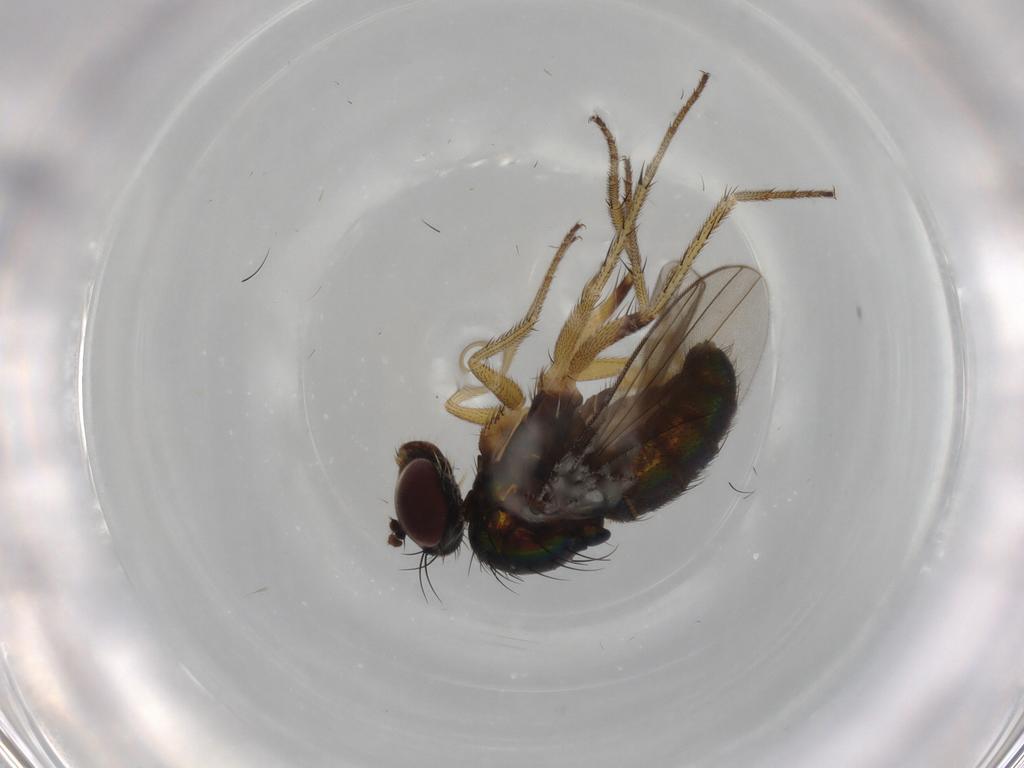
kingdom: Animalia
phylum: Arthropoda
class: Insecta
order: Diptera
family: Dolichopodidae
